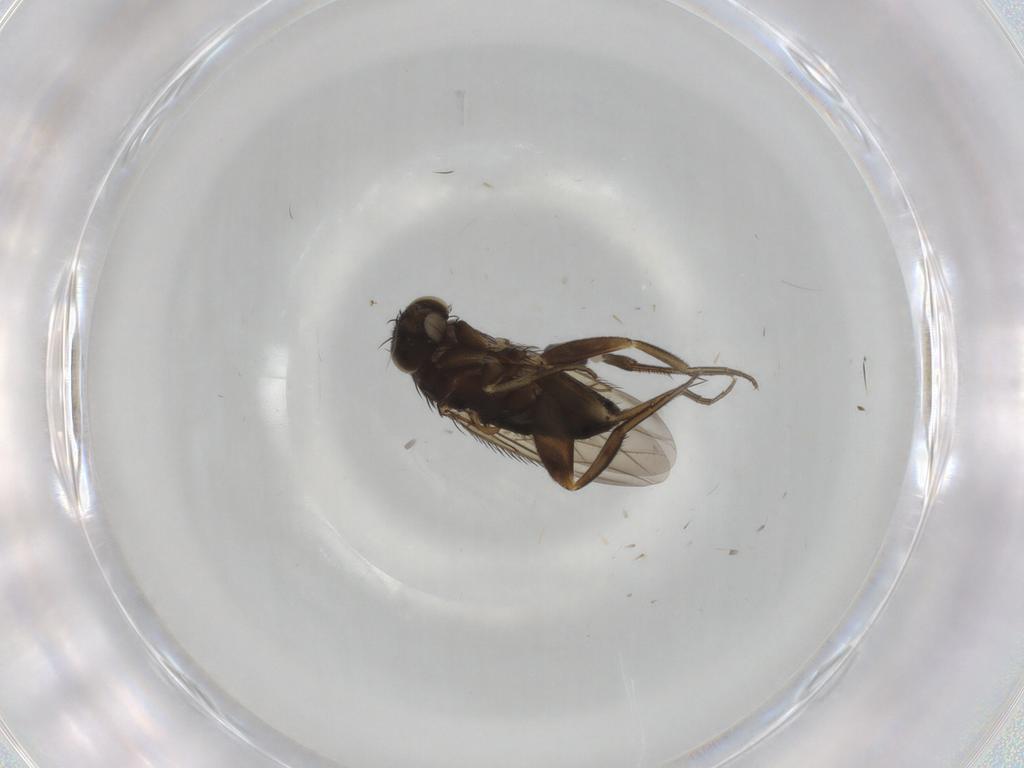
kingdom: Animalia
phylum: Arthropoda
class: Insecta
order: Diptera
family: Phoridae
